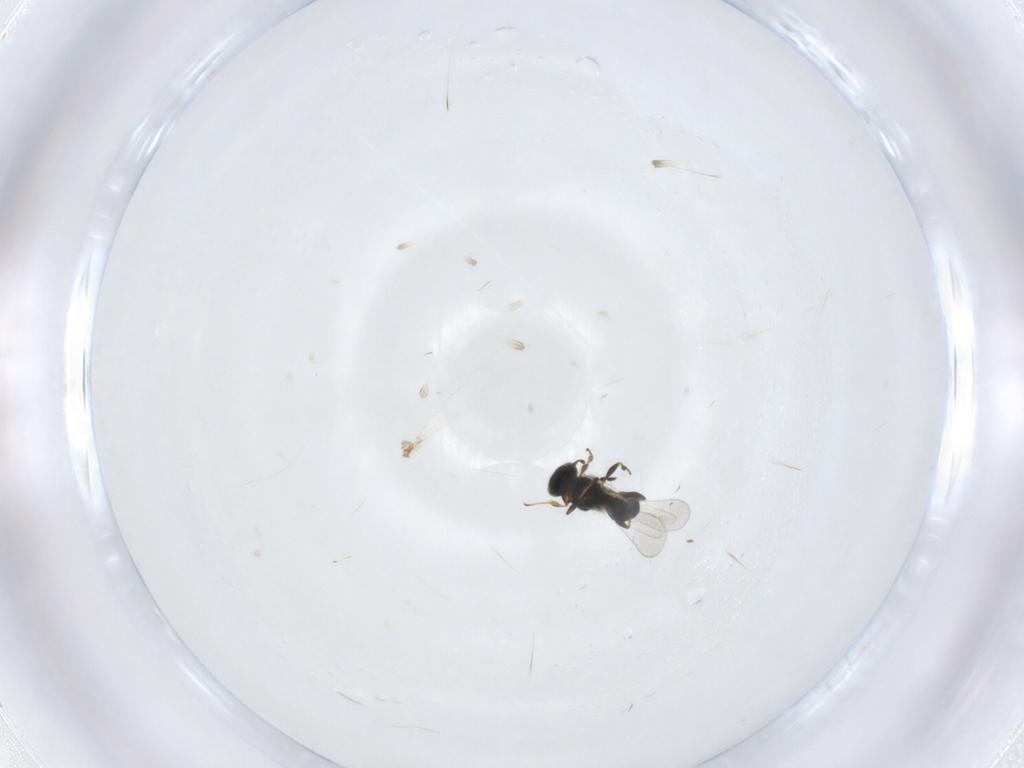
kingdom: Animalia
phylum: Arthropoda
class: Insecta
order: Hymenoptera
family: Platygastridae
